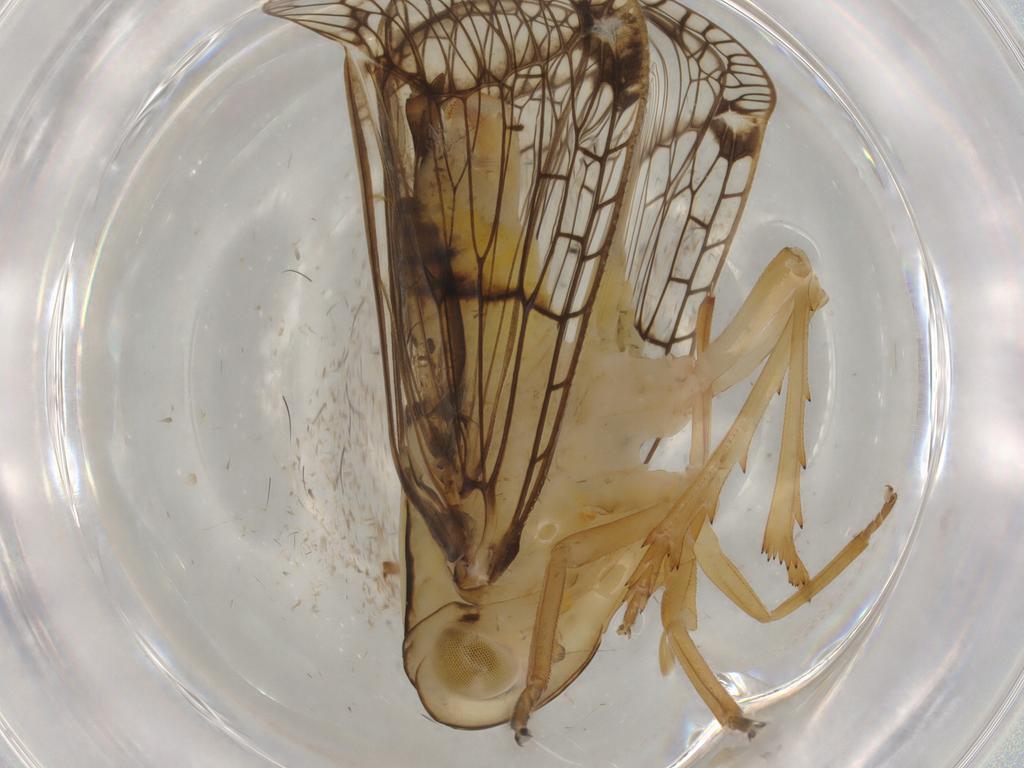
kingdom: Animalia
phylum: Arthropoda
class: Insecta
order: Hemiptera
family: Nogodinidae
